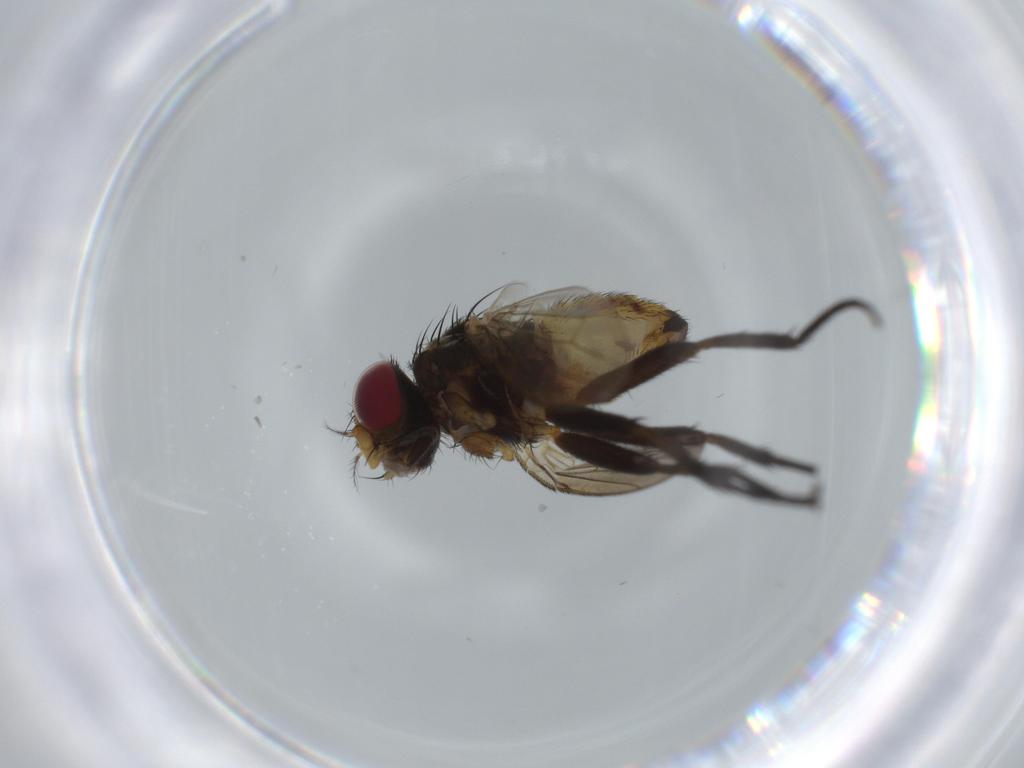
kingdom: Animalia
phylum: Arthropoda
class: Insecta
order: Diptera
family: Anthomyiidae
